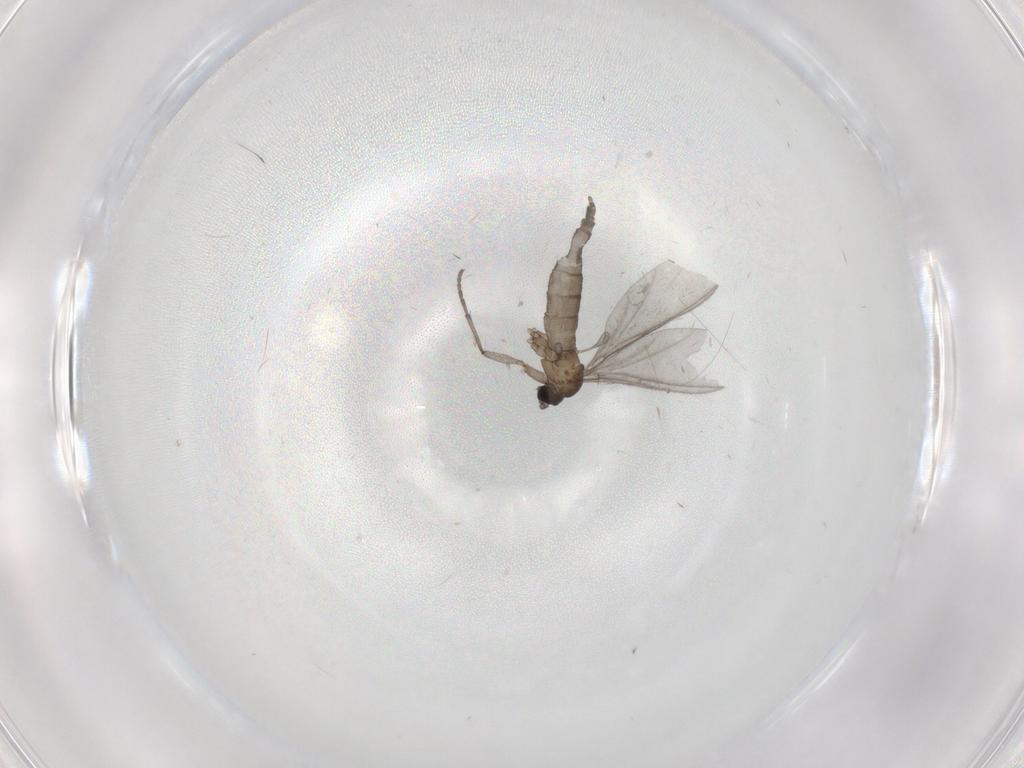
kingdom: Animalia
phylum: Arthropoda
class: Insecta
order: Diptera
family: Sciaridae
